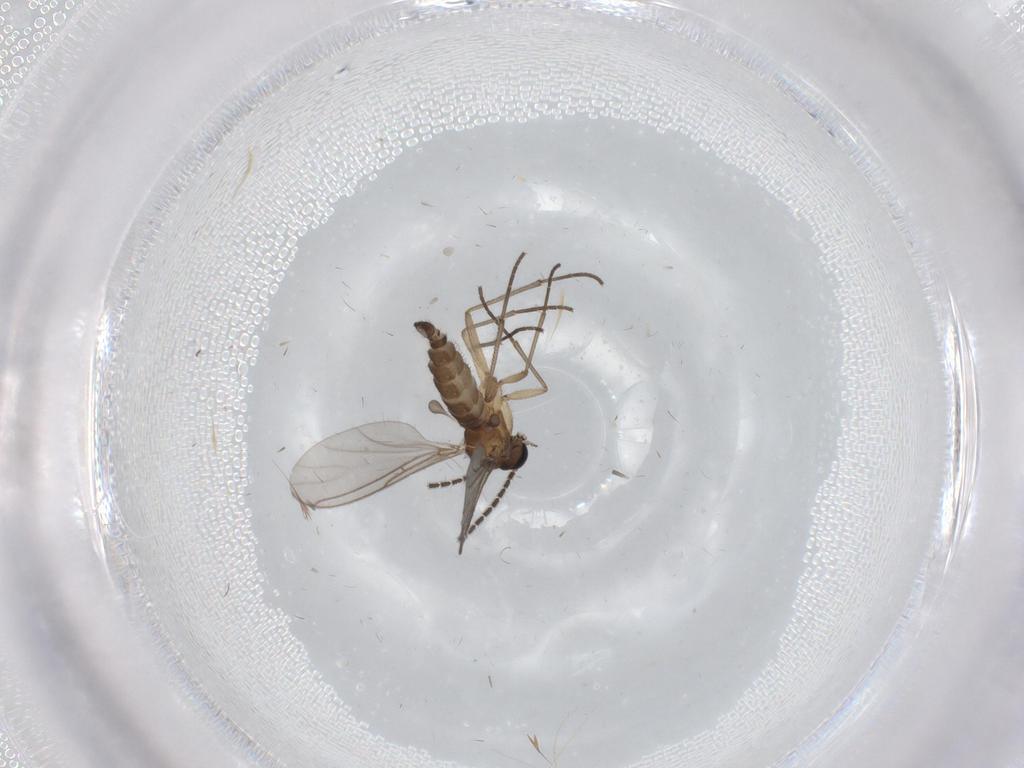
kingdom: Animalia
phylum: Arthropoda
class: Insecta
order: Diptera
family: Sciaridae
